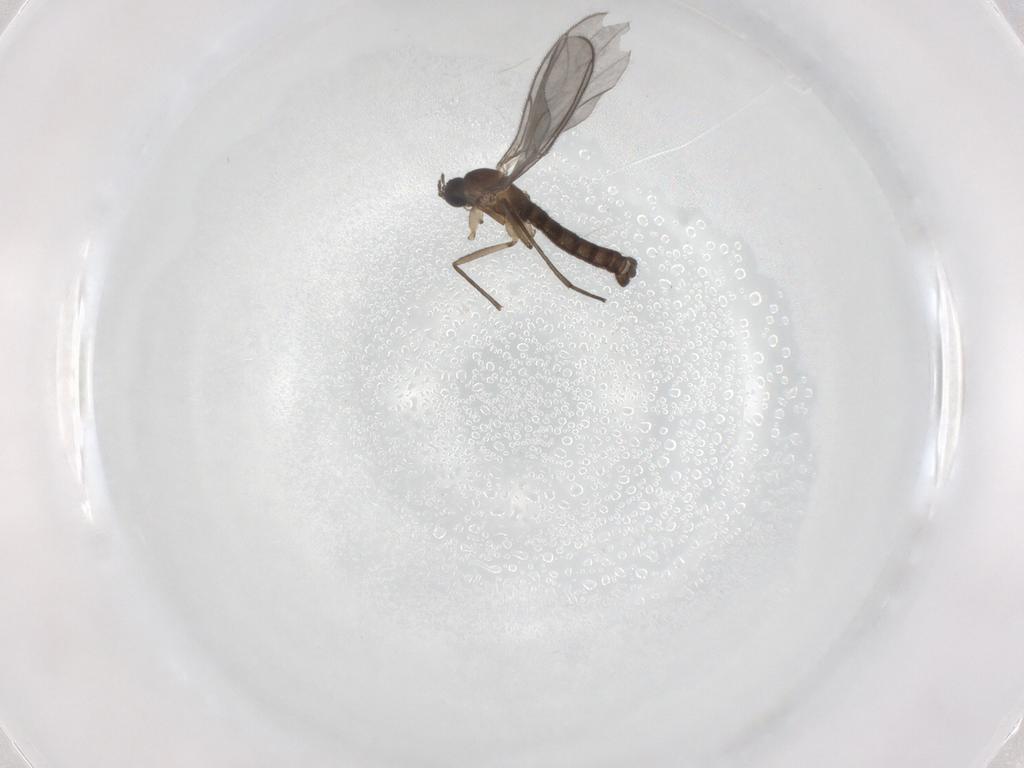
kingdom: Animalia
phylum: Arthropoda
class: Insecta
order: Diptera
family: Sciaridae
